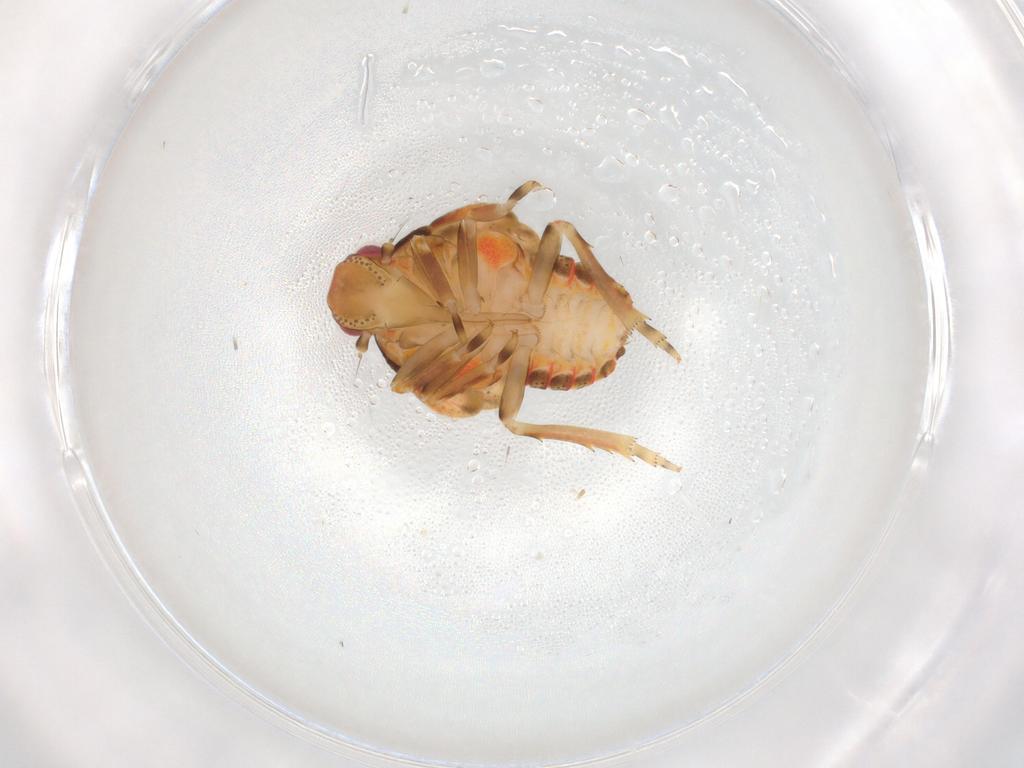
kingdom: Animalia
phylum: Arthropoda
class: Insecta
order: Hemiptera
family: Flatidae
